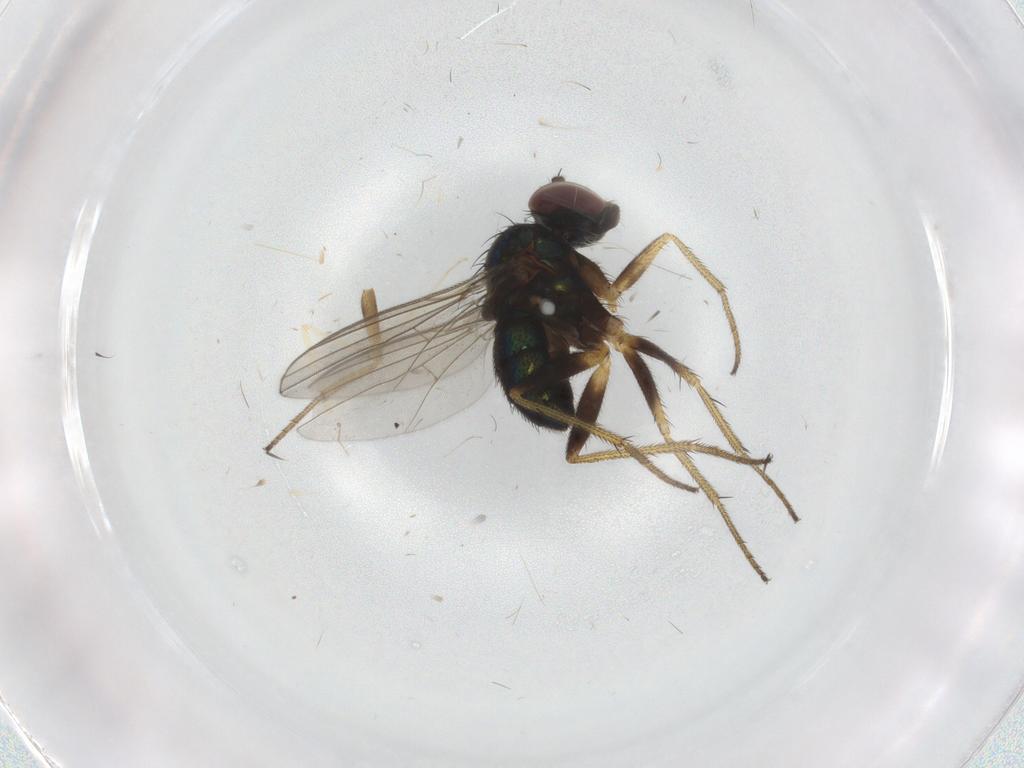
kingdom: Animalia
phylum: Arthropoda
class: Insecta
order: Diptera
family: Chironomidae
